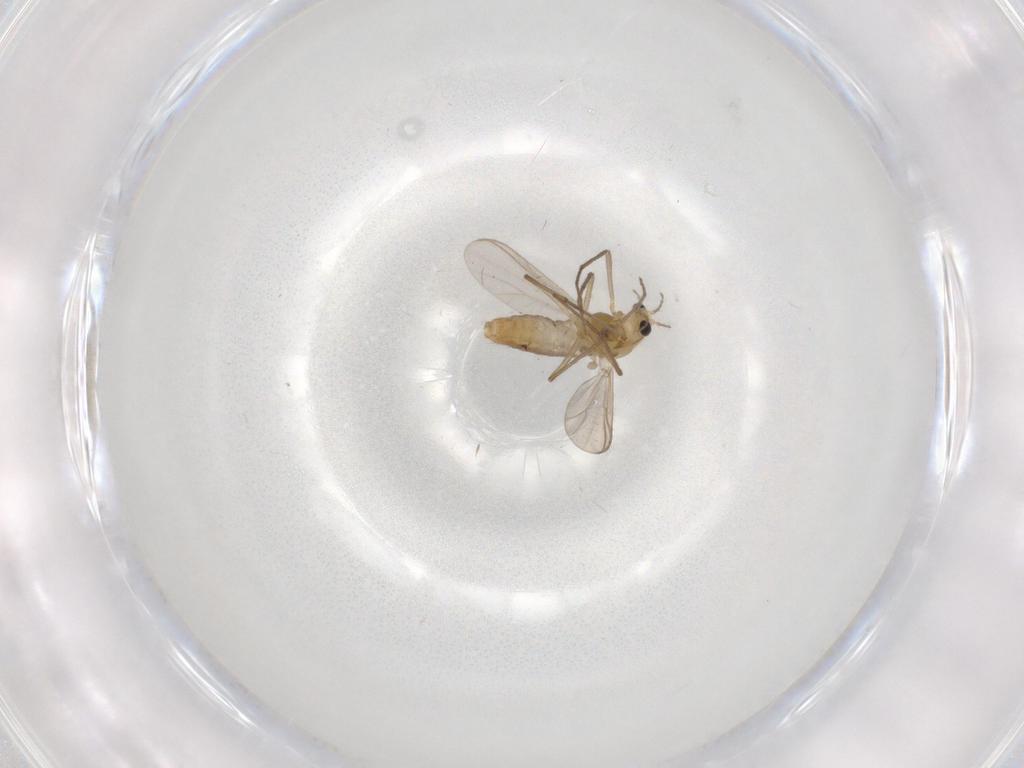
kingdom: Animalia
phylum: Arthropoda
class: Insecta
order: Diptera
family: Chironomidae
